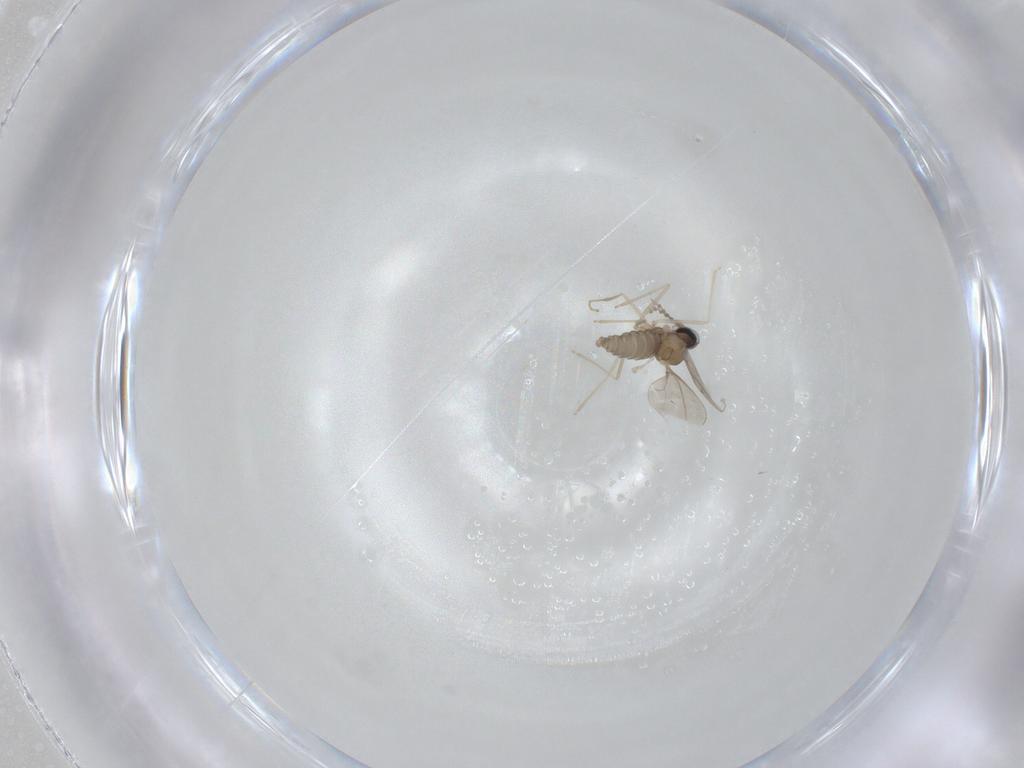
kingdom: Animalia
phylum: Arthropoda
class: Insecta
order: Diptera
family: Cecidomyiidae
